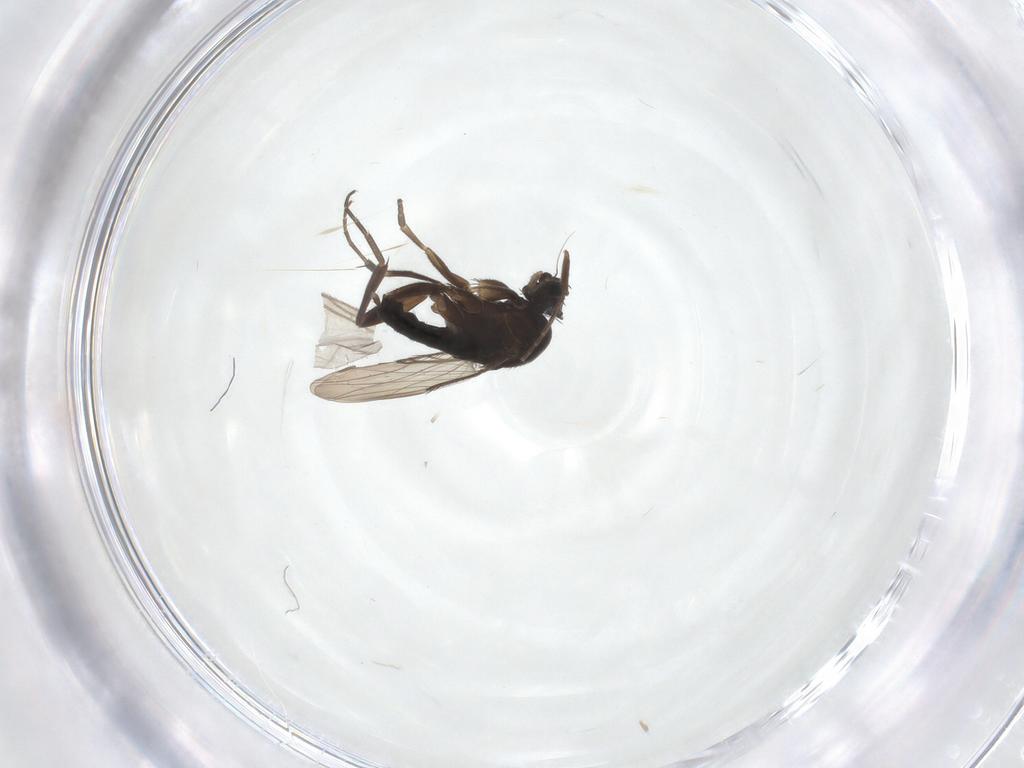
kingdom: Animalia
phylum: Arthropoda
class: Insecta
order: Diptera
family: Phoridae
